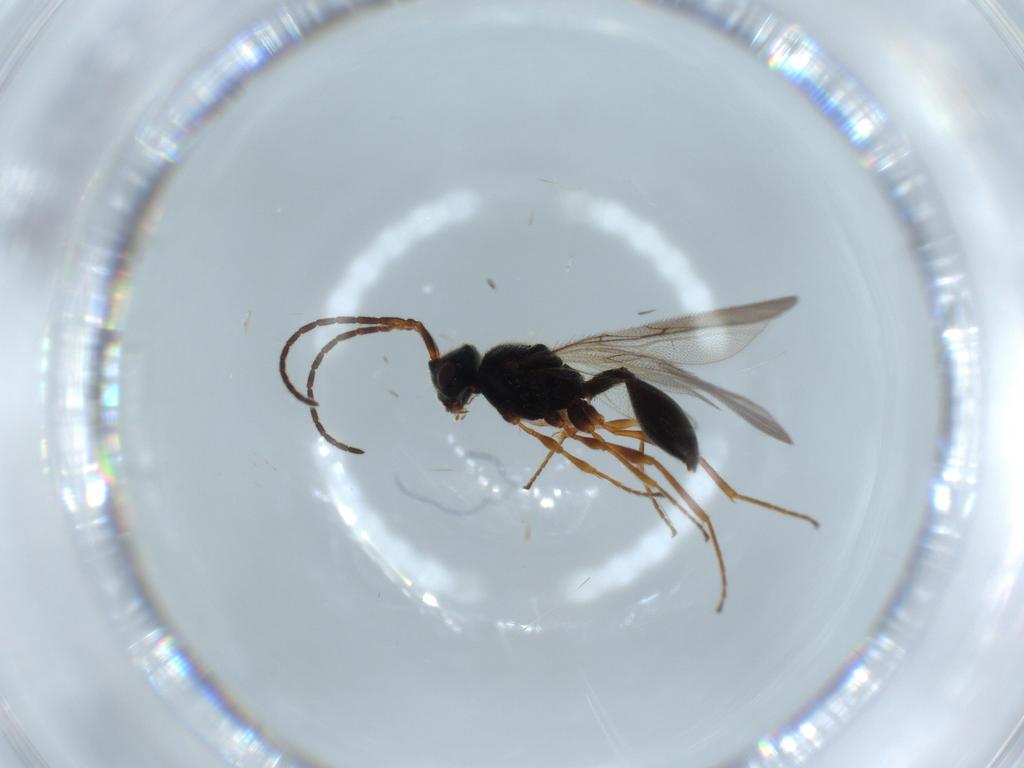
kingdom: Animalia
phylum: Arthropoda
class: Insecta
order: Hymenoptera
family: Diapriidae
